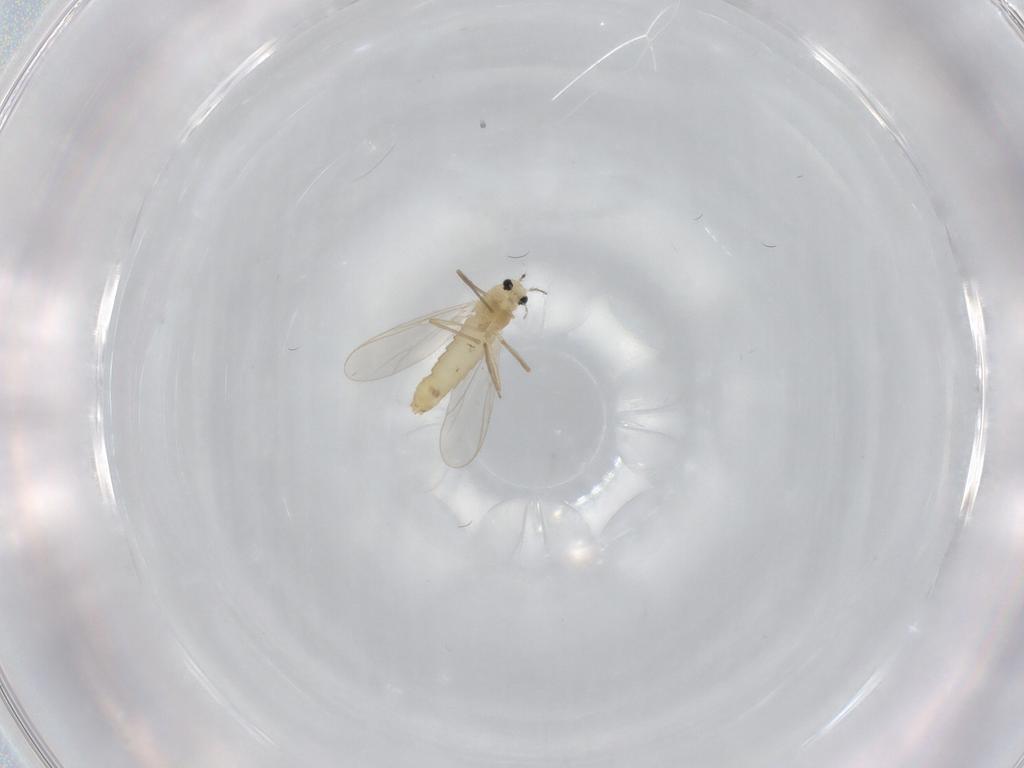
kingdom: Animalia
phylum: Arthropoda
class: Insecta
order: Diptera
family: Chironomidae
